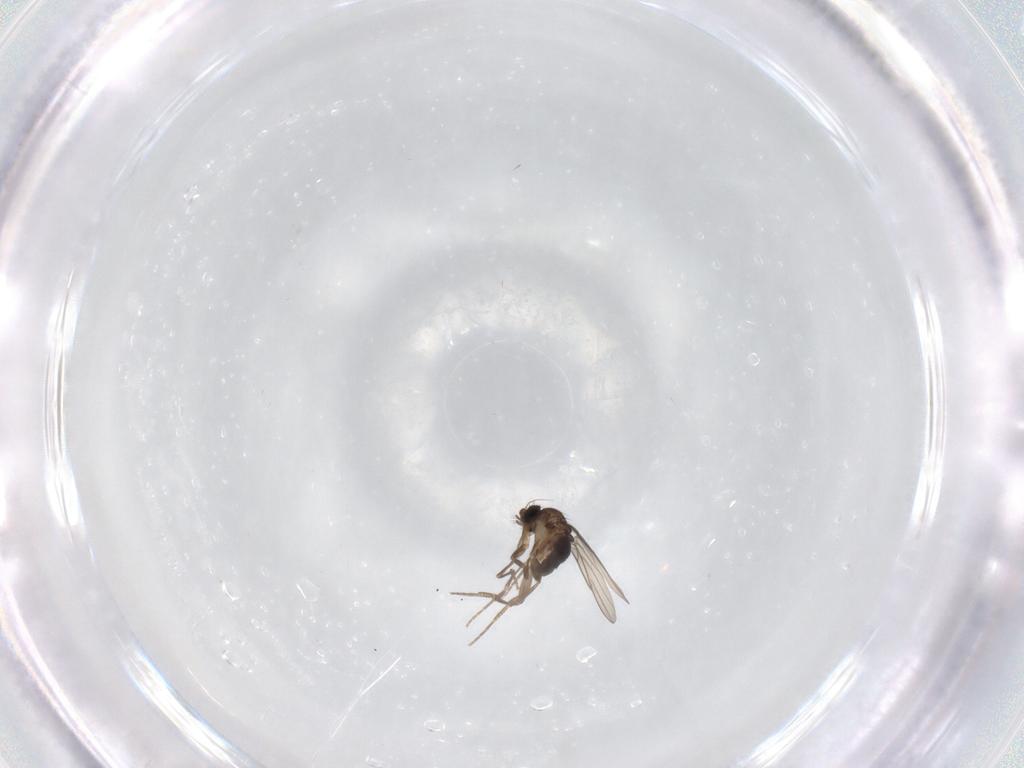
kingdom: Animalia
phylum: Arthropoda
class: Insecta
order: Diptera
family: Phoridae
